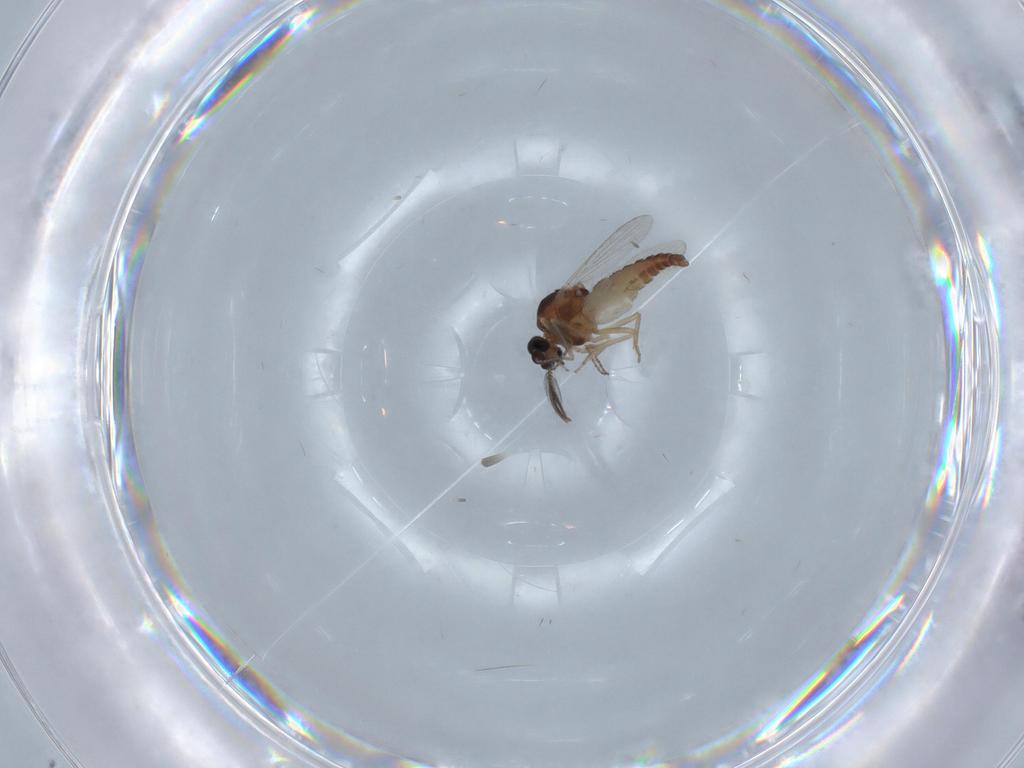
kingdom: Animalia
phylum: Arthropoda
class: Insecta
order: Diptera
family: Ceratopogonidae
